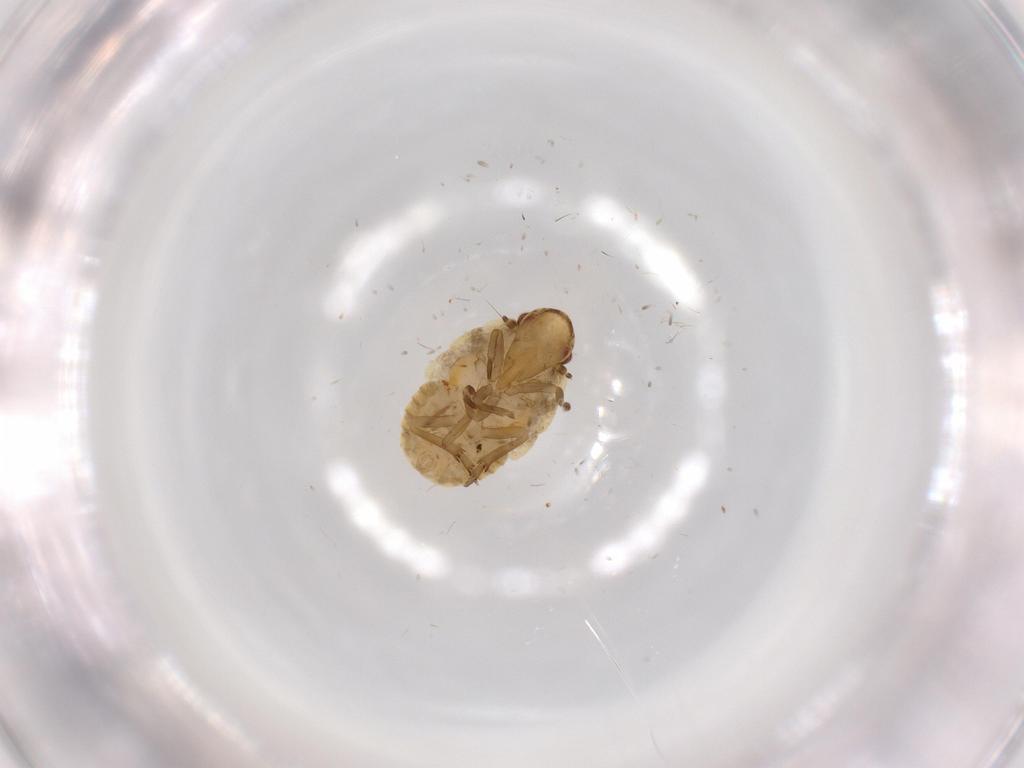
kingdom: Animalia
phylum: Arthropoda
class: Insecta
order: Hemiptera
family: Flatidae
